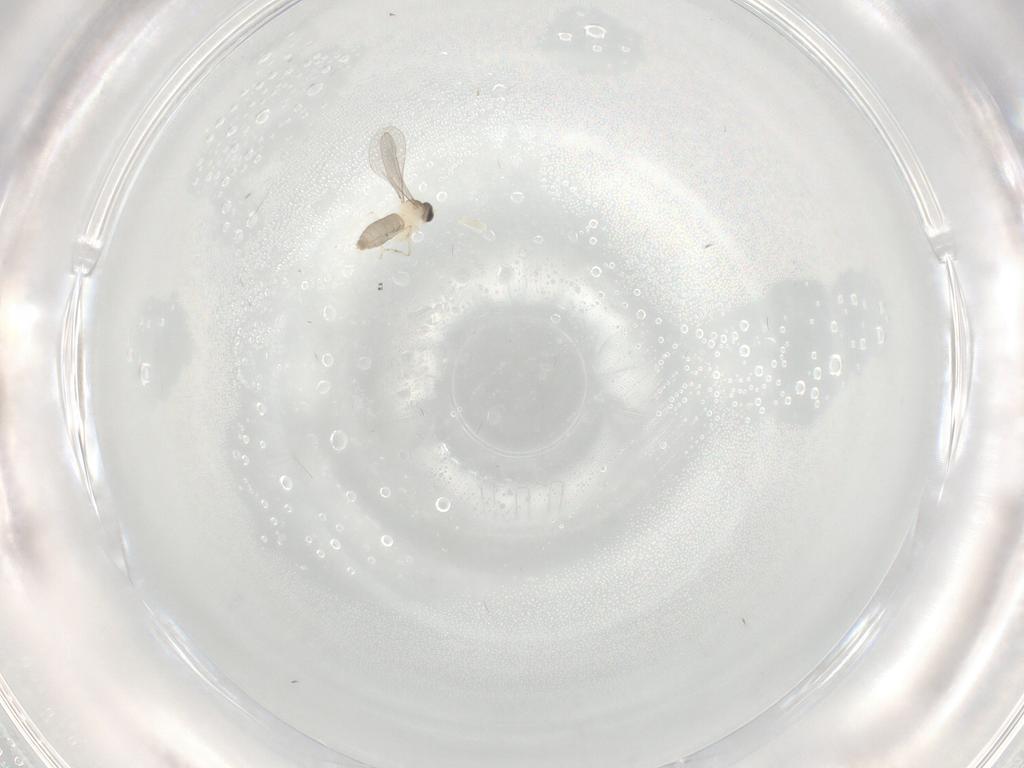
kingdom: Animalia
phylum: Arthropoda
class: Insecta
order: Diptera
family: Cecidomyiidae
